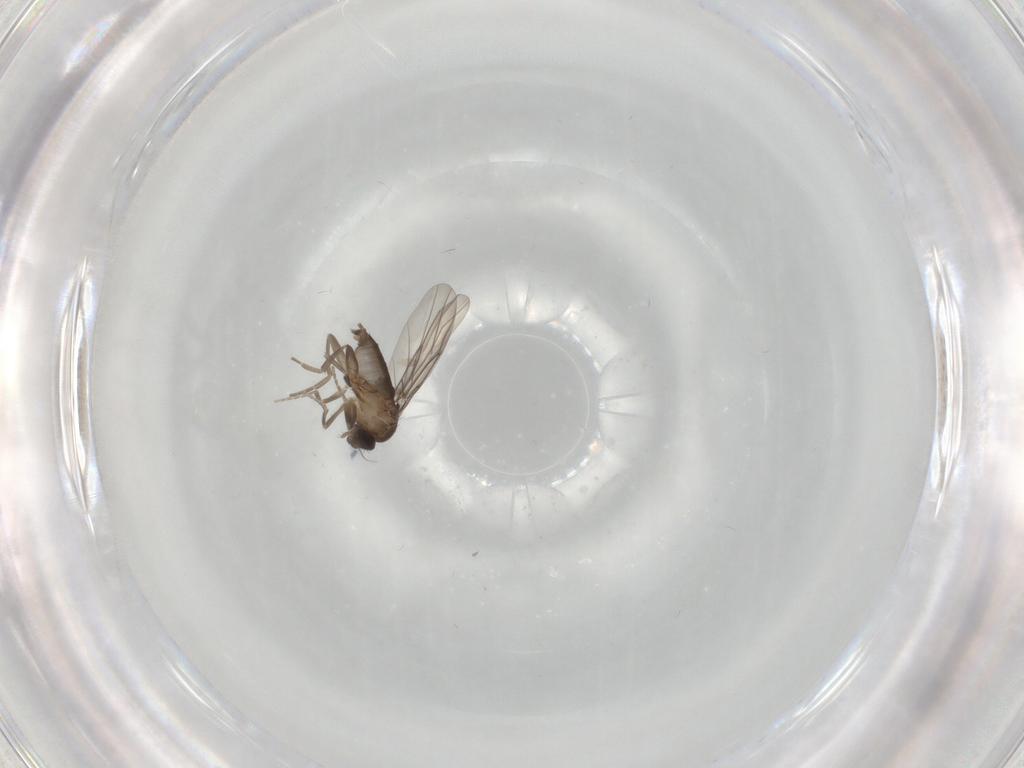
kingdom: Animalia
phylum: Arthropoda
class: Insecta
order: Diptera
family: Phoridae
